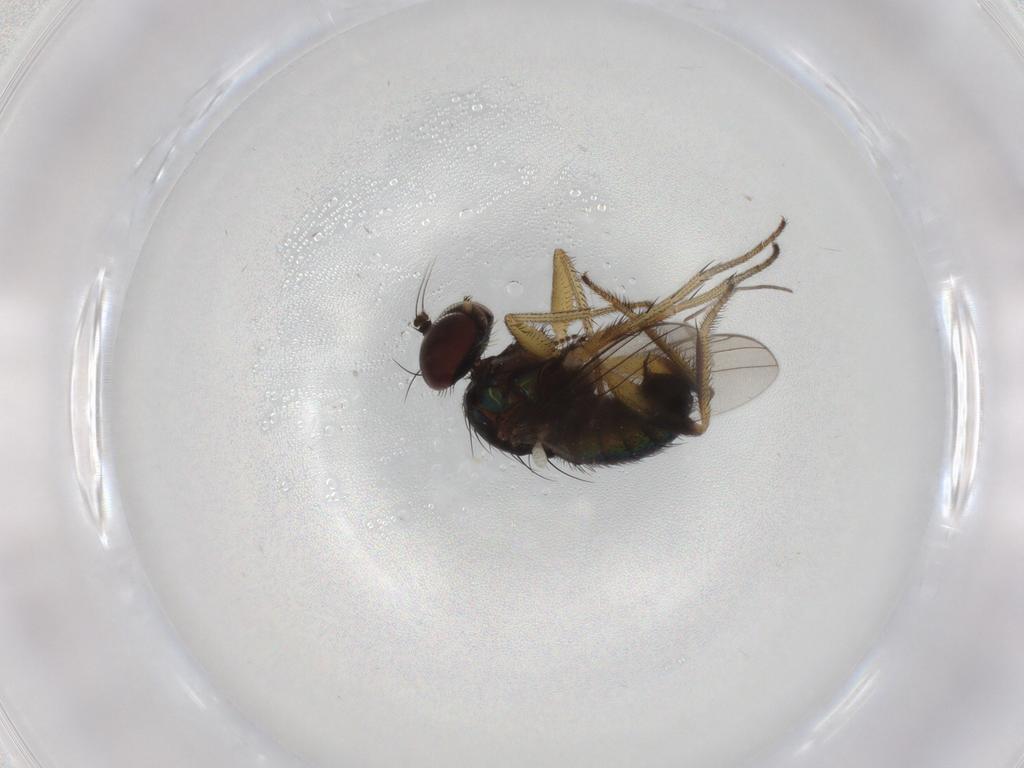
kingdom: Animalia
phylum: Arthropoda
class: Insecta
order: Diptera
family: Dolichopodidae
